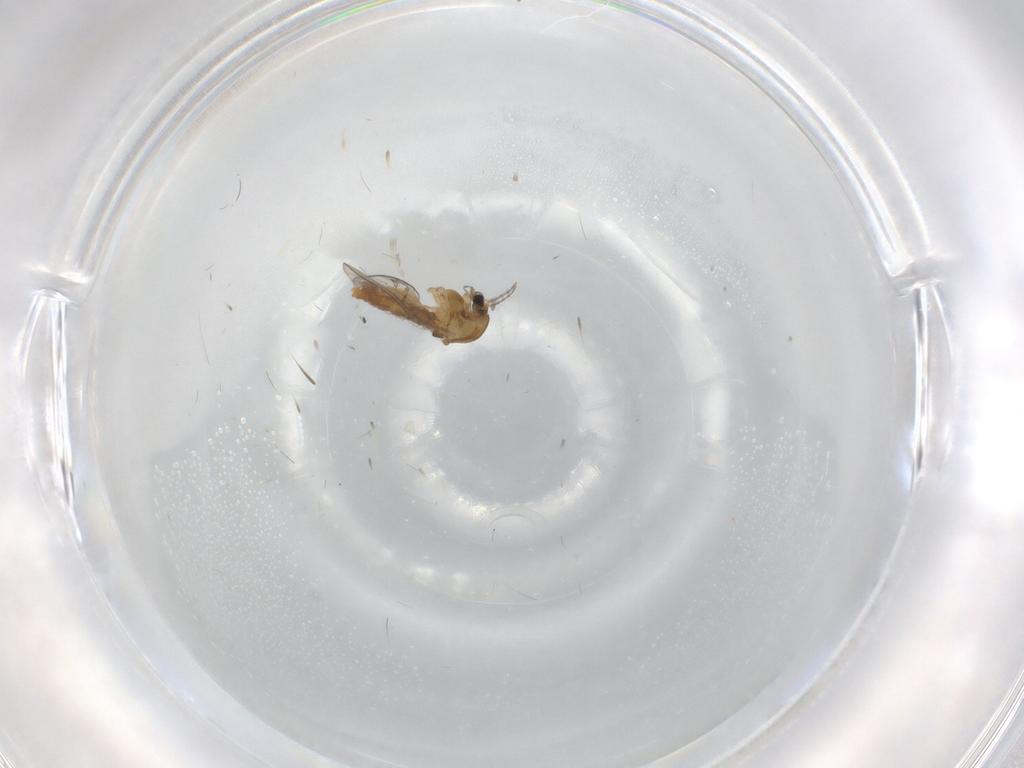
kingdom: Animalia
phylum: Arthropoda
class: Insecta
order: Diptera
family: Chironomidae
